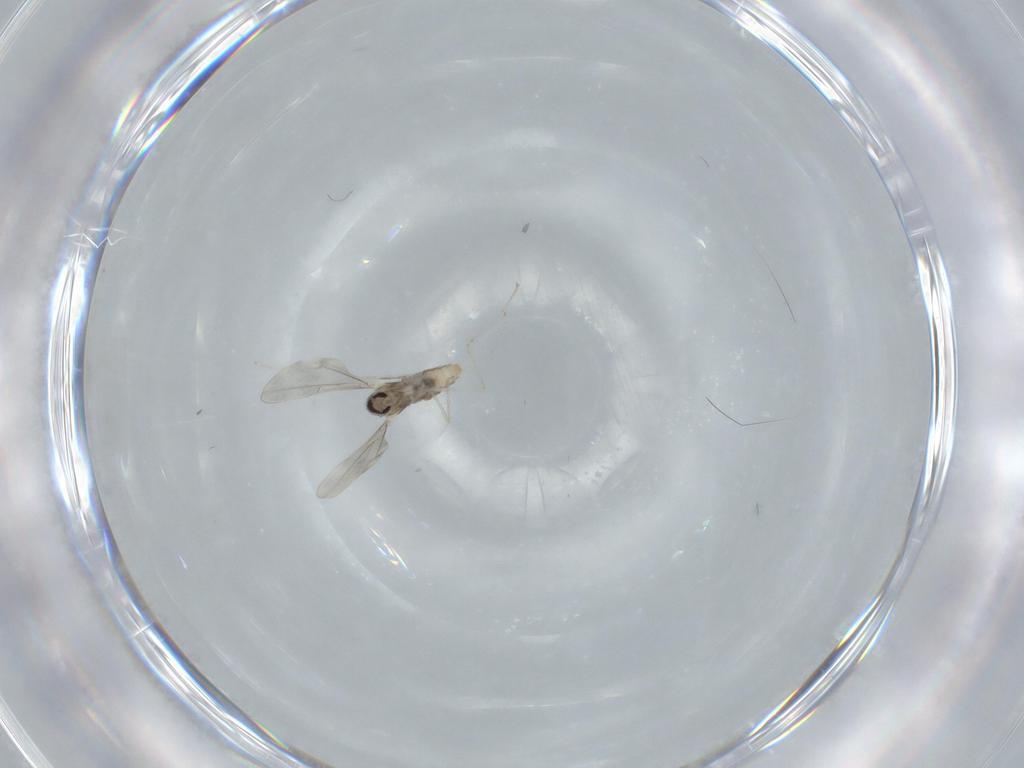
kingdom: Animalia
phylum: Arthropoda
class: Insecta
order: Diptera
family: Cecidomyiidae
